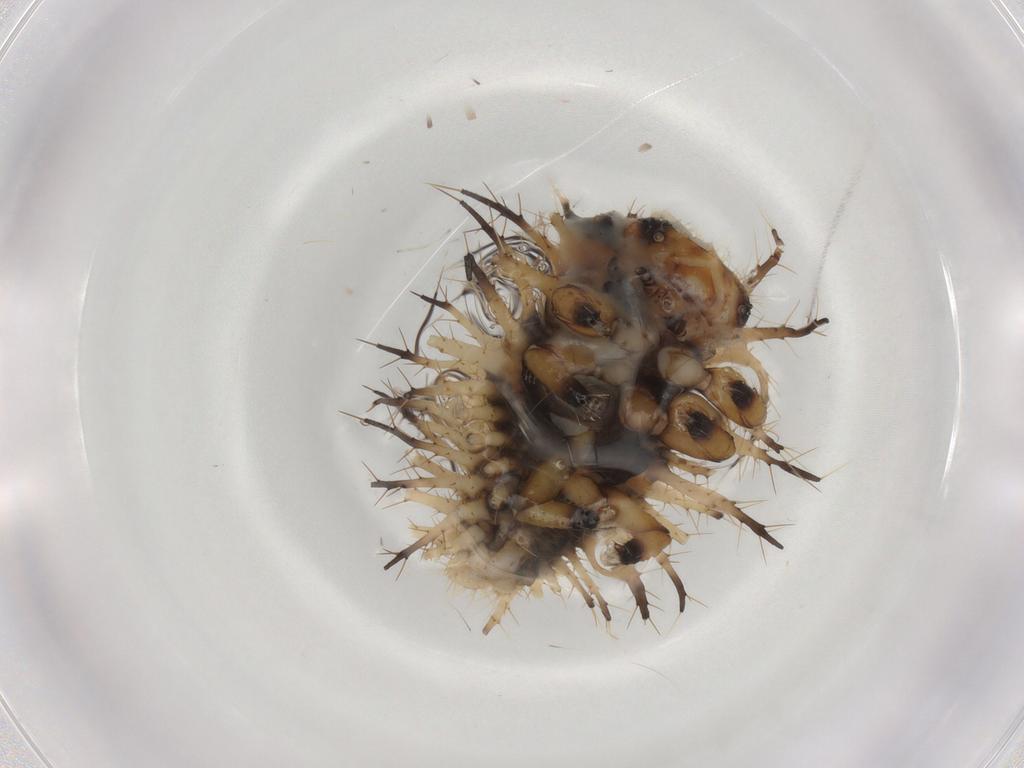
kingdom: Animalia
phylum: Arthropoda
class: Insecta
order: Coleoptera
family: Coccinellidae
